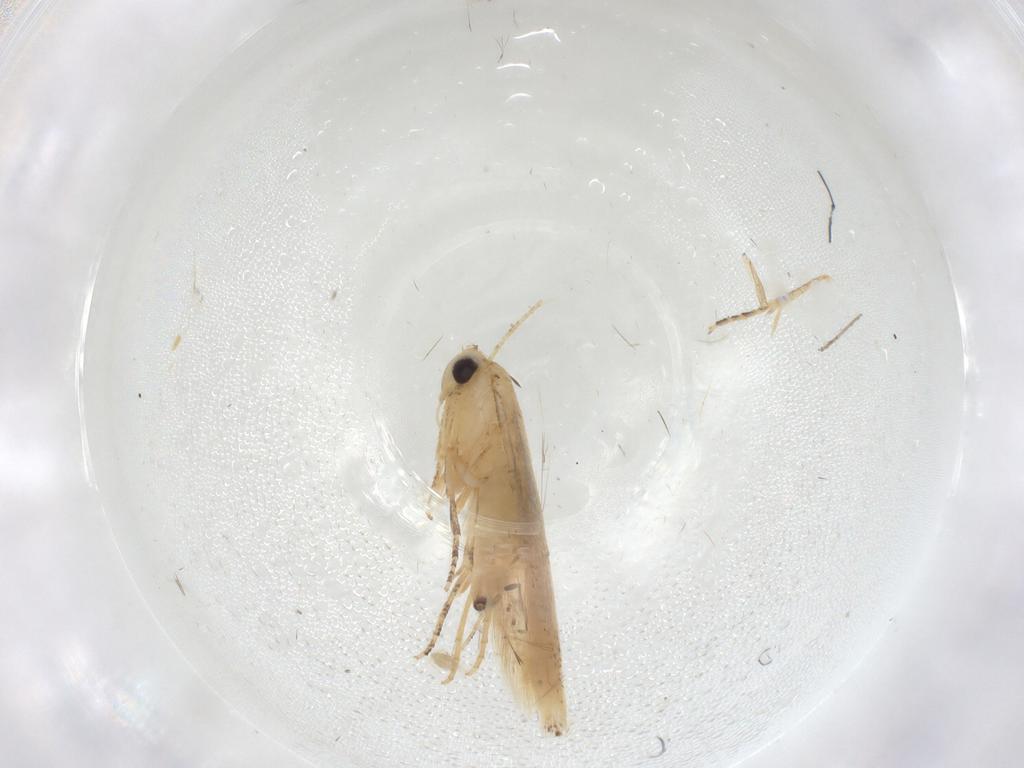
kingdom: Animalia
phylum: Arthropoda
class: Insecta
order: Lepidoptera
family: Bucculatricidae
